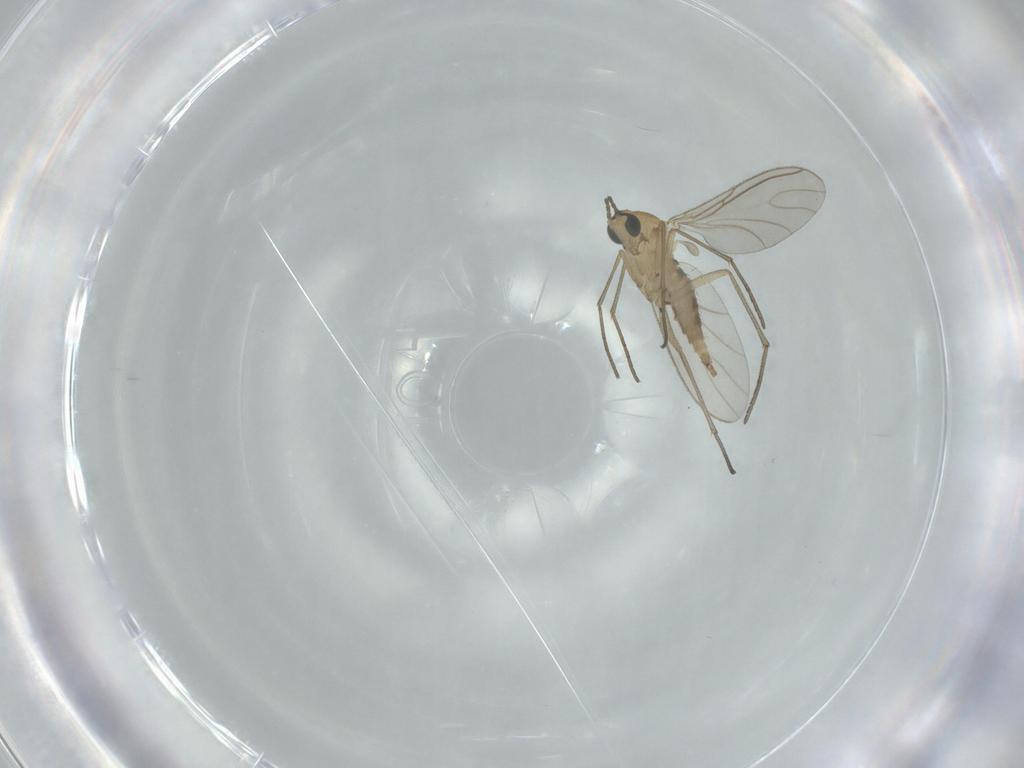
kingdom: Animalia
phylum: Arthropoda
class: Insecta
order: Diptera
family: Sciaridae
